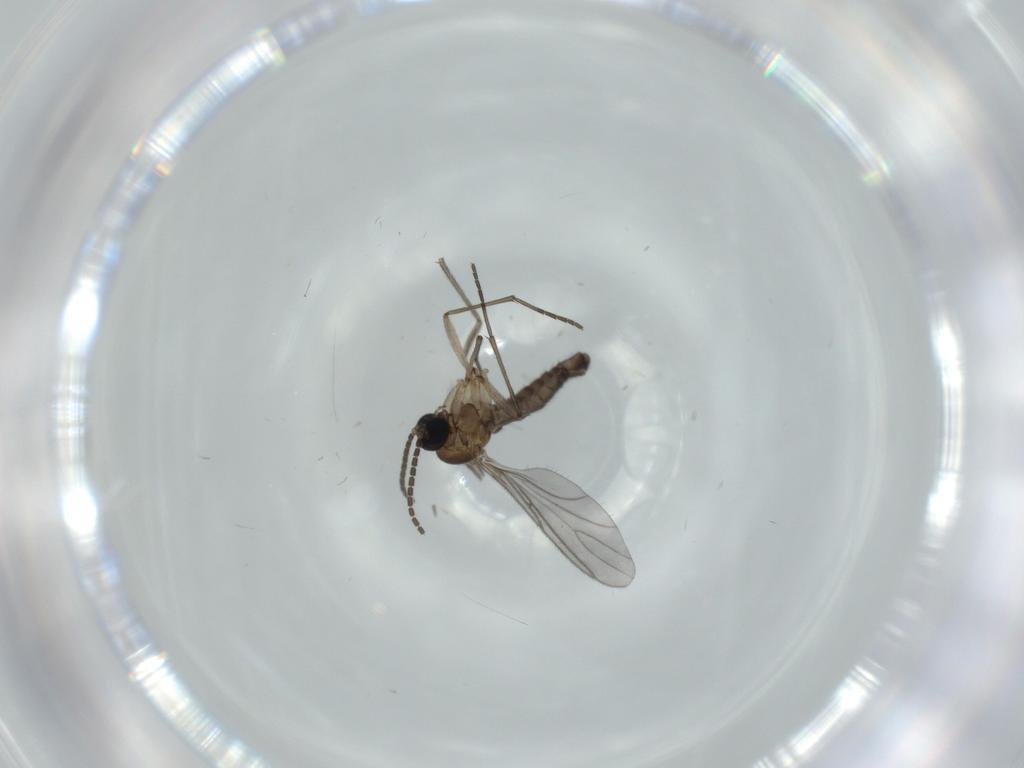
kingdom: Animalia
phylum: Arthropoda
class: Insecta
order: Diptera
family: Sciaridae
